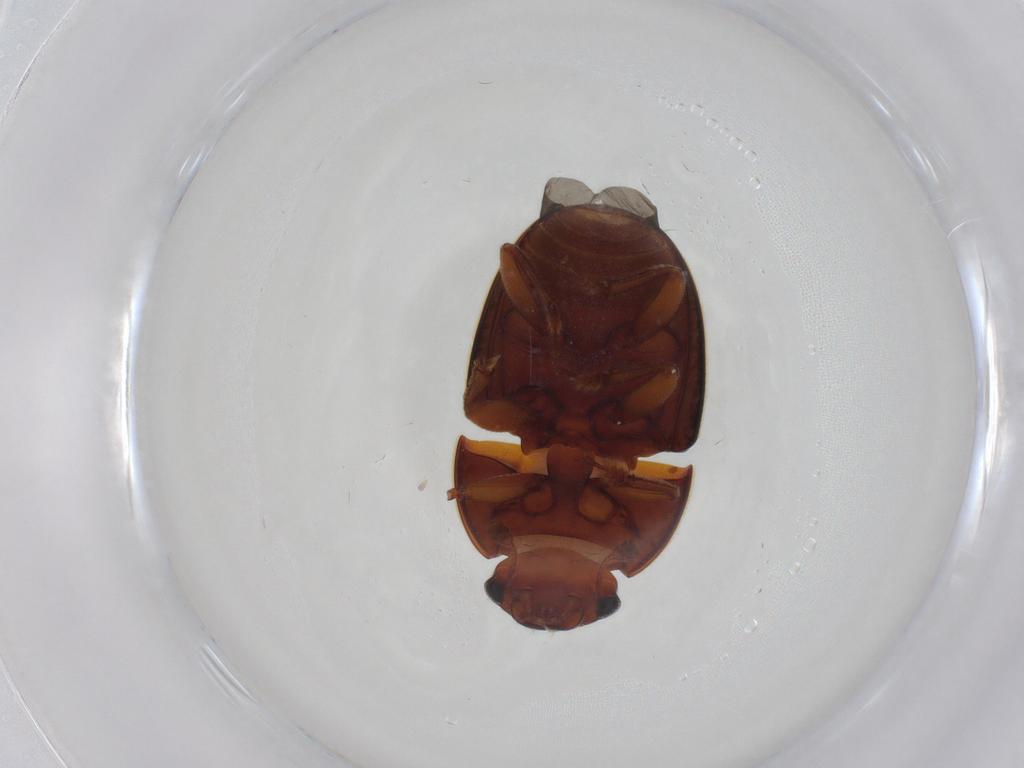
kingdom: Animalia
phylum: Arthropoda
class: Insecta
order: Coleoptera
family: Nitidulidae
